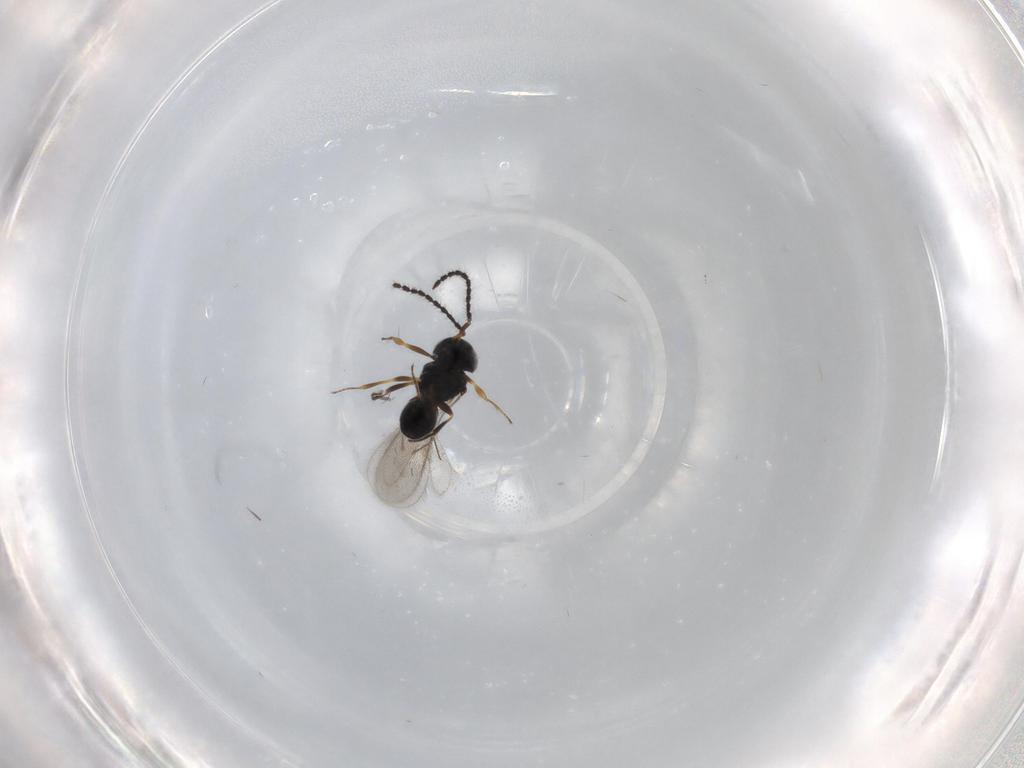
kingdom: Animalia
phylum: Arthropoda
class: Insecta
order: Hymenoptera
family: Scelionidae
